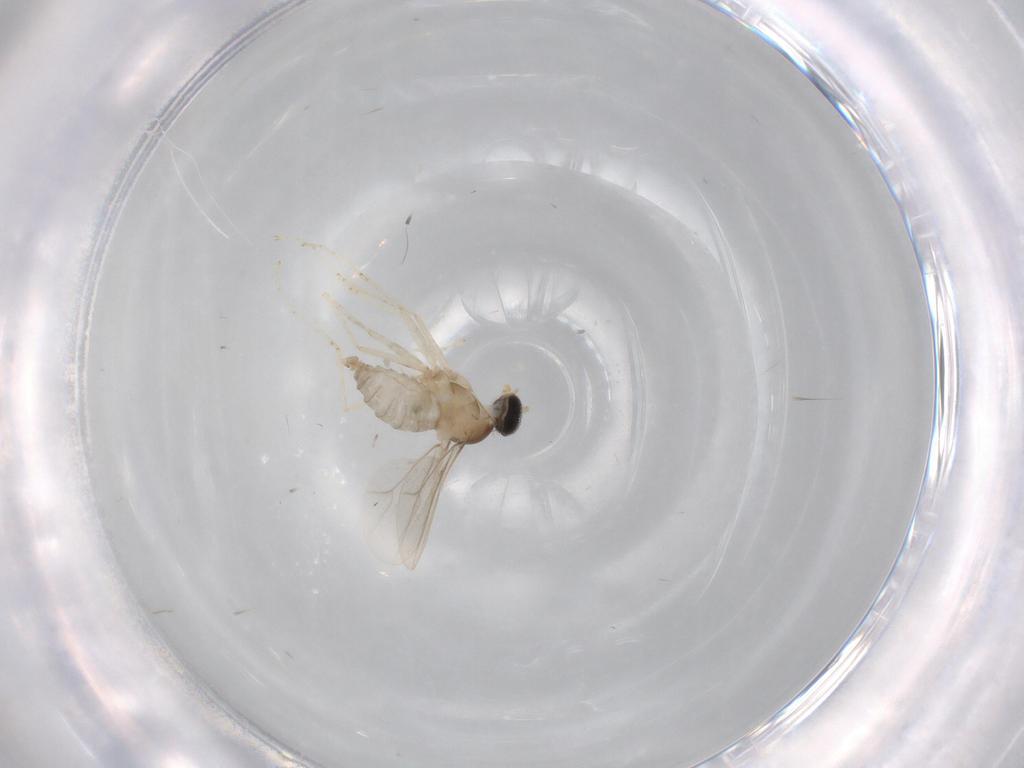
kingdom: Animalia
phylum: Arthropoda
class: Insecta
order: Diptera
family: Cecidomyiidae
